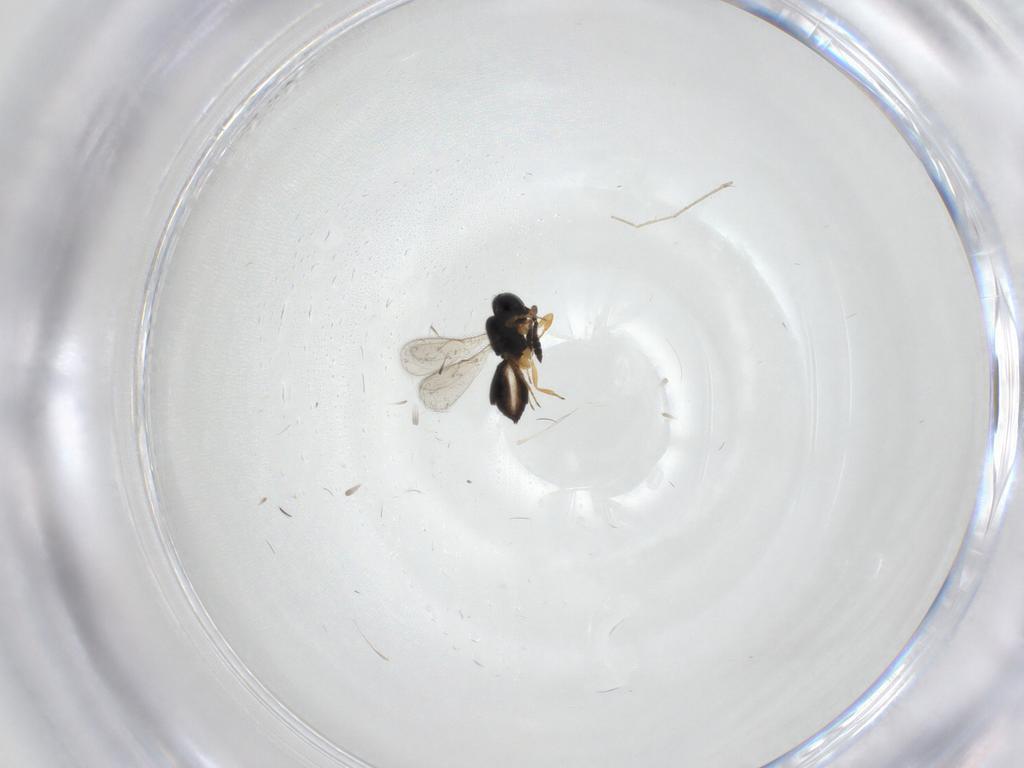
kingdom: Animalia
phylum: Arthropoda
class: Insecta
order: Hymenoptera
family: Scelionidae
